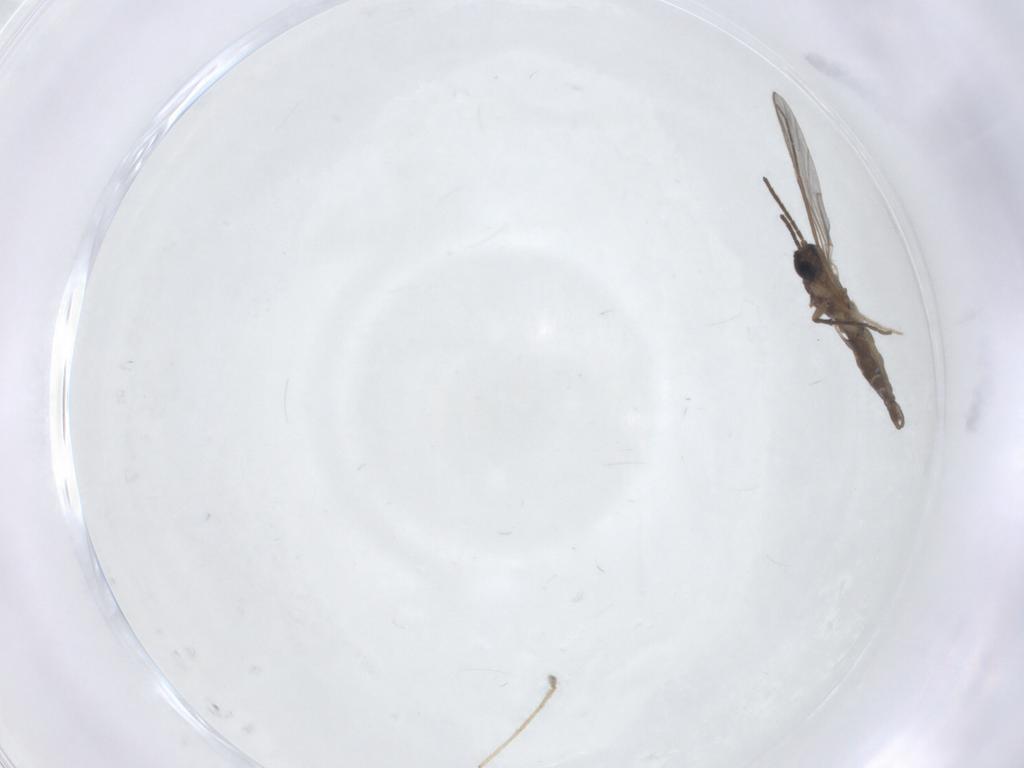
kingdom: Animalia
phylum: Arthropoda
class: Insecta
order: Diptera
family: Sciaridae
